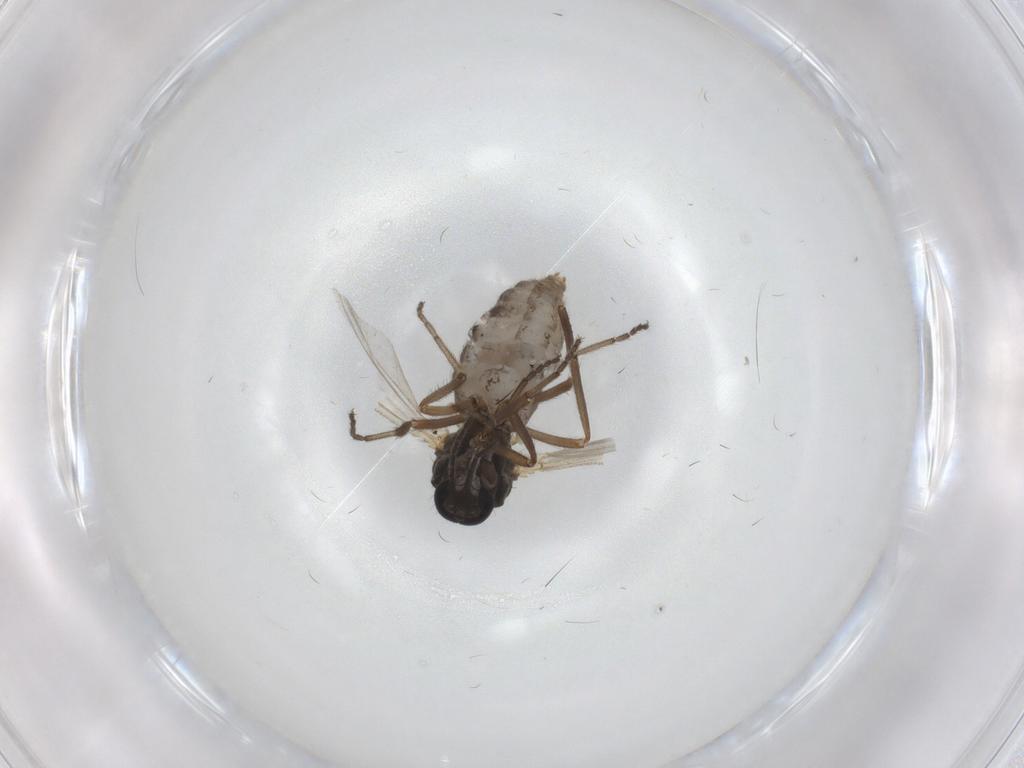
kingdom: Animalia
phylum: Arthropoda
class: Insecta
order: Diptera
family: Ceratopogonidae
